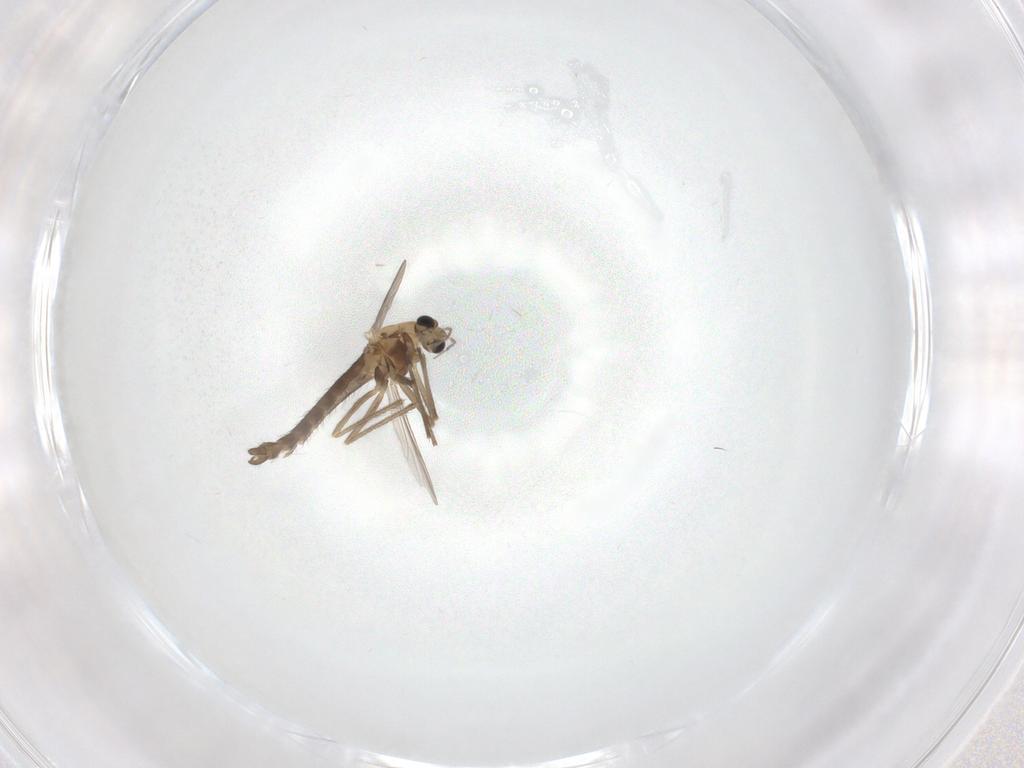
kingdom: Animalia
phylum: Arthropoda
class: Insecta
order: Diptera
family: Chironomidae
